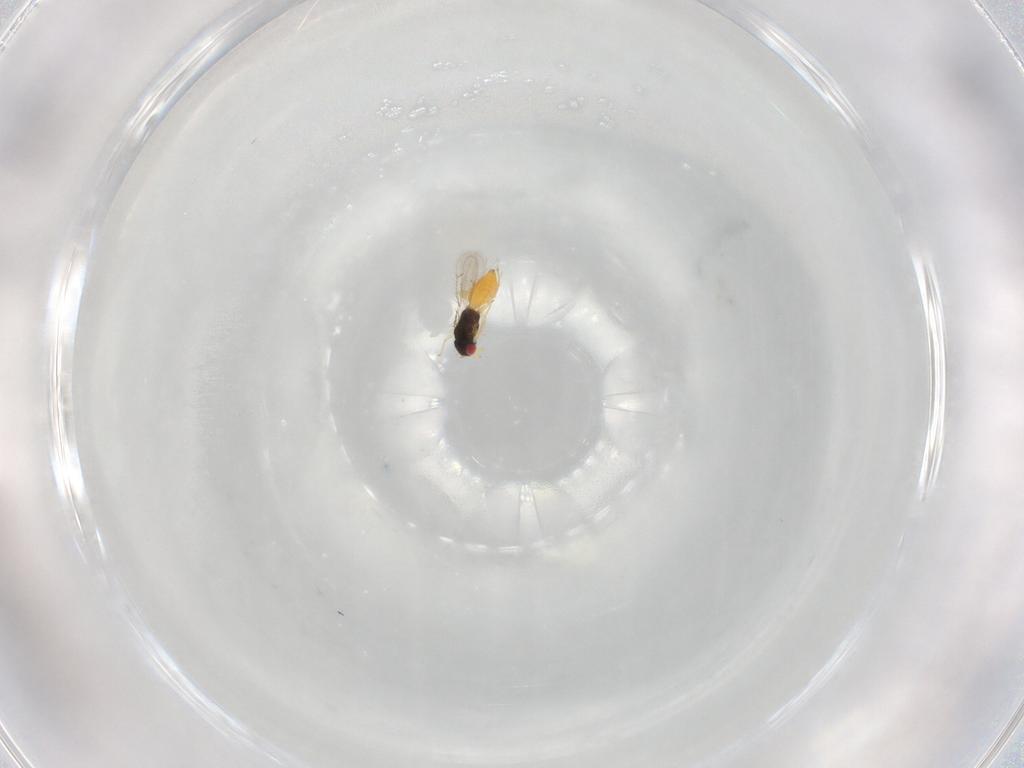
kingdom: Animalia
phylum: Arthropoda
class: Insecta
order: Hymenoptera
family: Eulophidae
